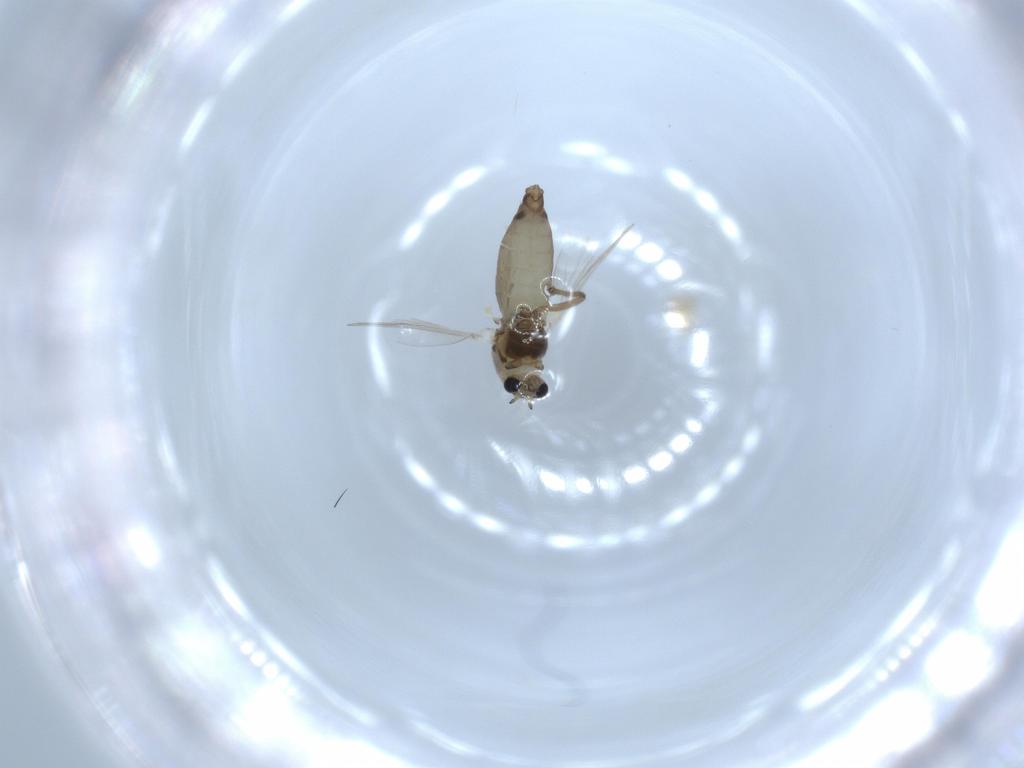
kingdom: Animalia
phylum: Arthropoda
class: Insecta
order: Diptera
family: Chironomidae
